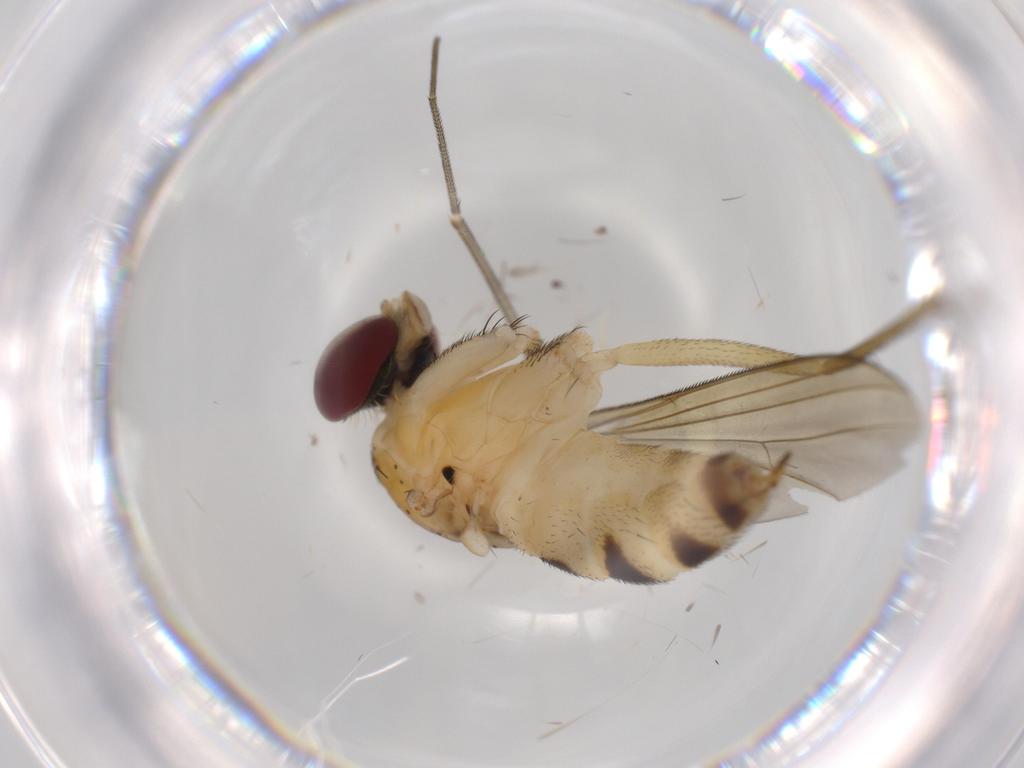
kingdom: Animalia
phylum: Arthropoda
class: Insecta
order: Diptera
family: Dolichopodidae
